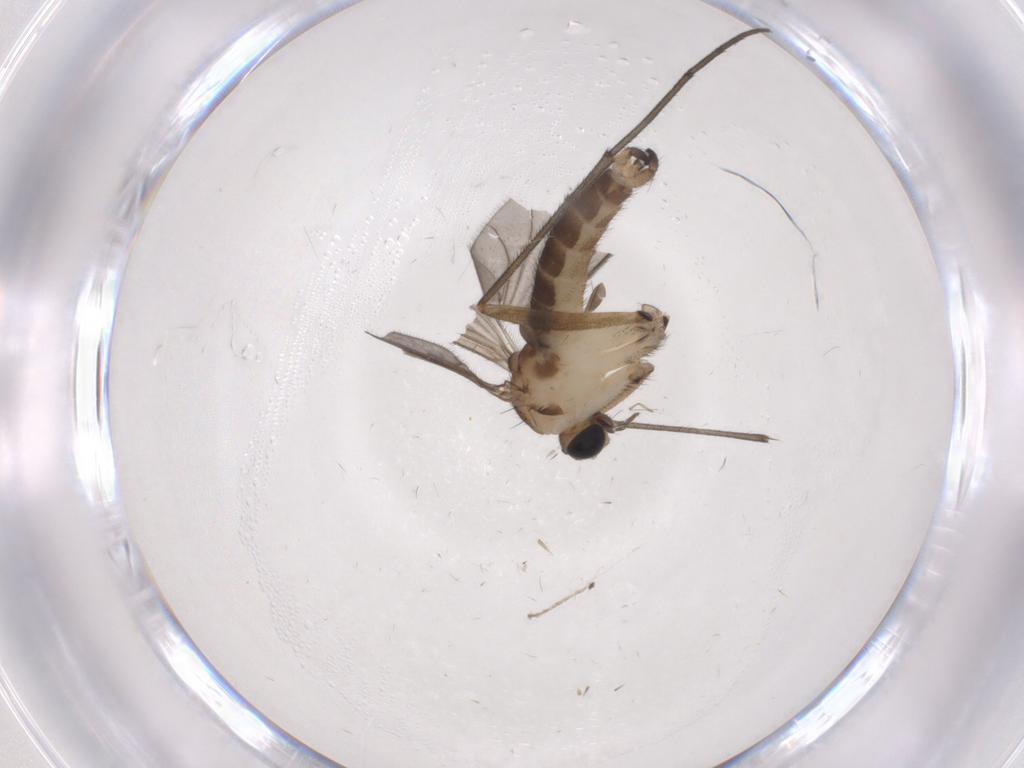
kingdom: Animalia
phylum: Arthropoda
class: Insecta
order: Diptera
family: Sciaridae
